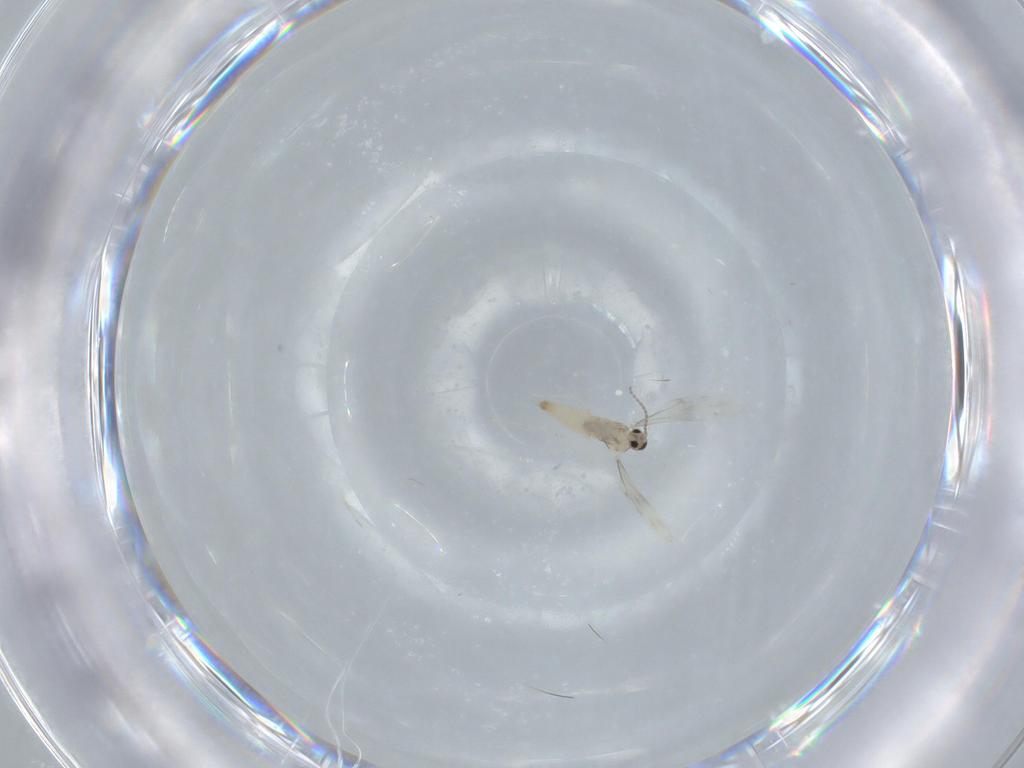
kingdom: Animalia
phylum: Arthropoda
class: Insecta
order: Diptera
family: Cecidomyiidae
